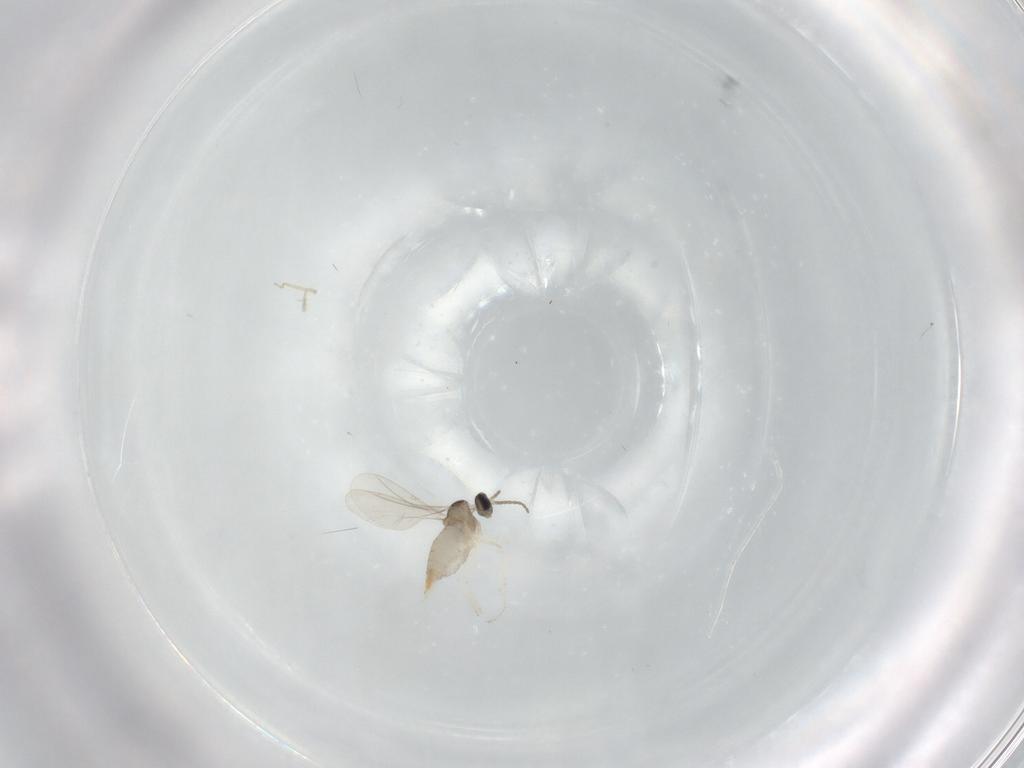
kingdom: Animalia
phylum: Arthropoda
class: Insecta
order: Diptera
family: Cecidomyiidae
